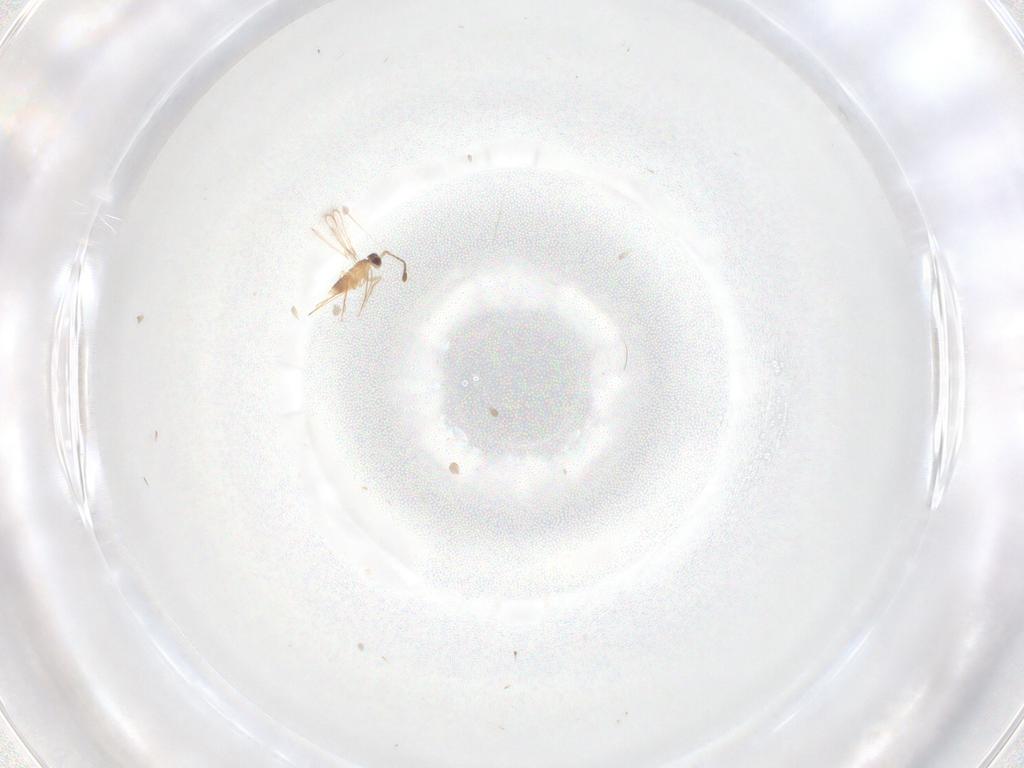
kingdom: Animalia
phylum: Arthropoda
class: Insecta
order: Hymenoptera
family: Mymaridae
